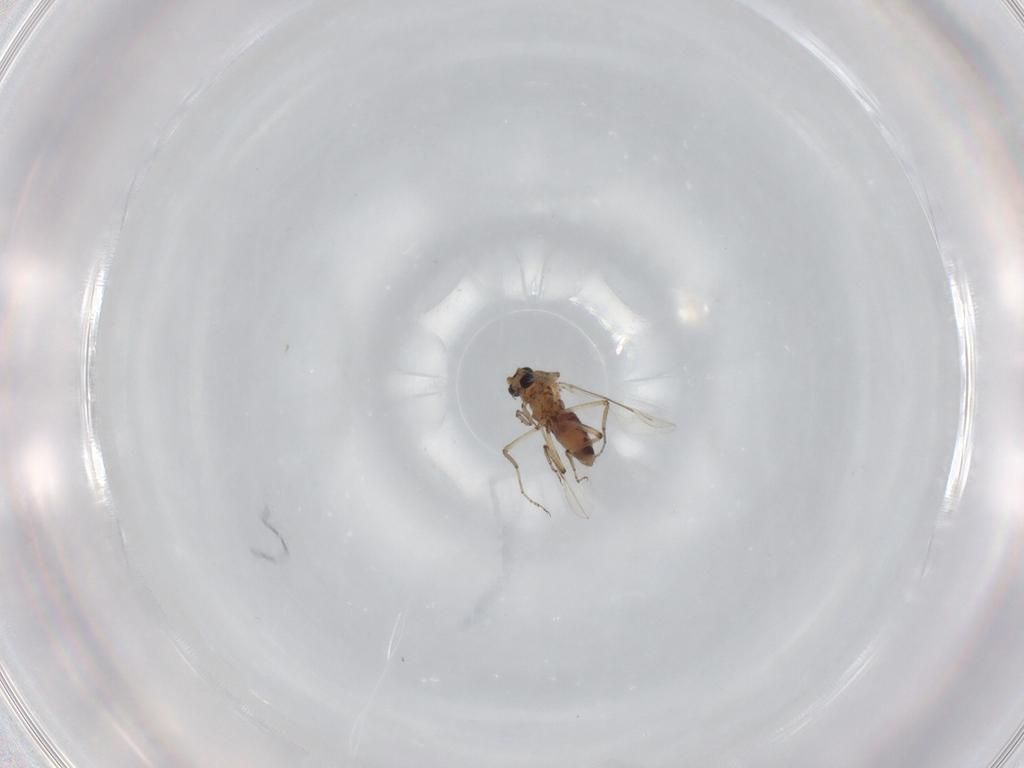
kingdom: Animalia
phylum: Arthropoda
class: Insecta
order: Diptera
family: Ceratopogonidae
